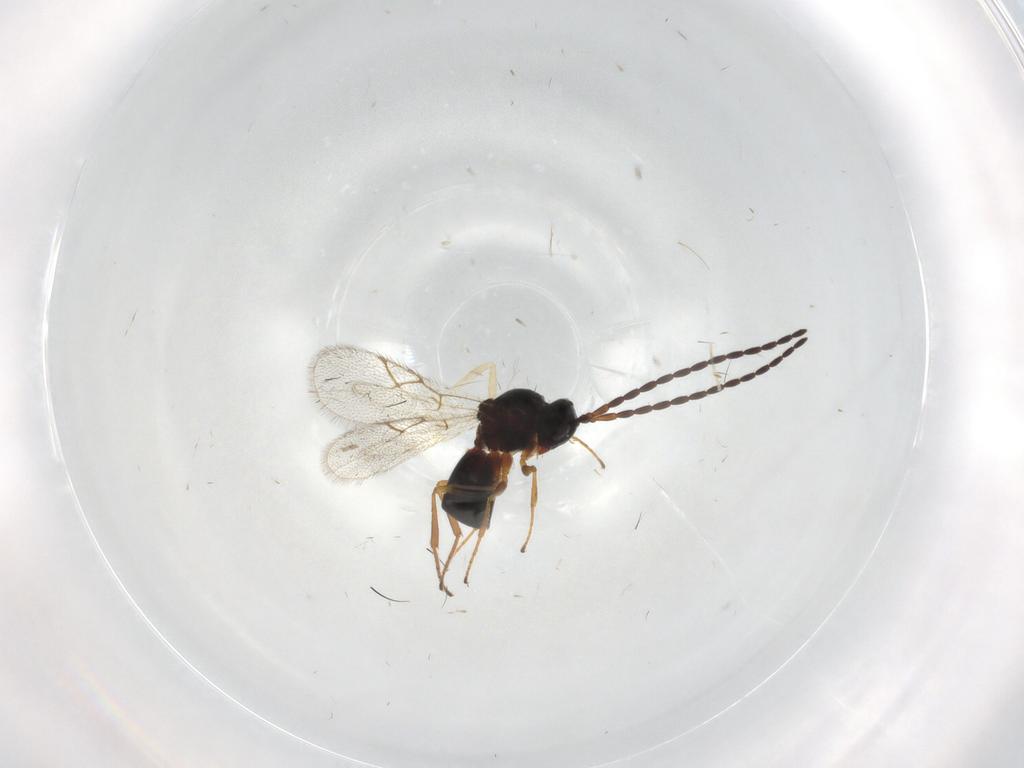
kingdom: Animalia
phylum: Arthropoda
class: Insecta
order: Hymenoptera
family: Figitidae
